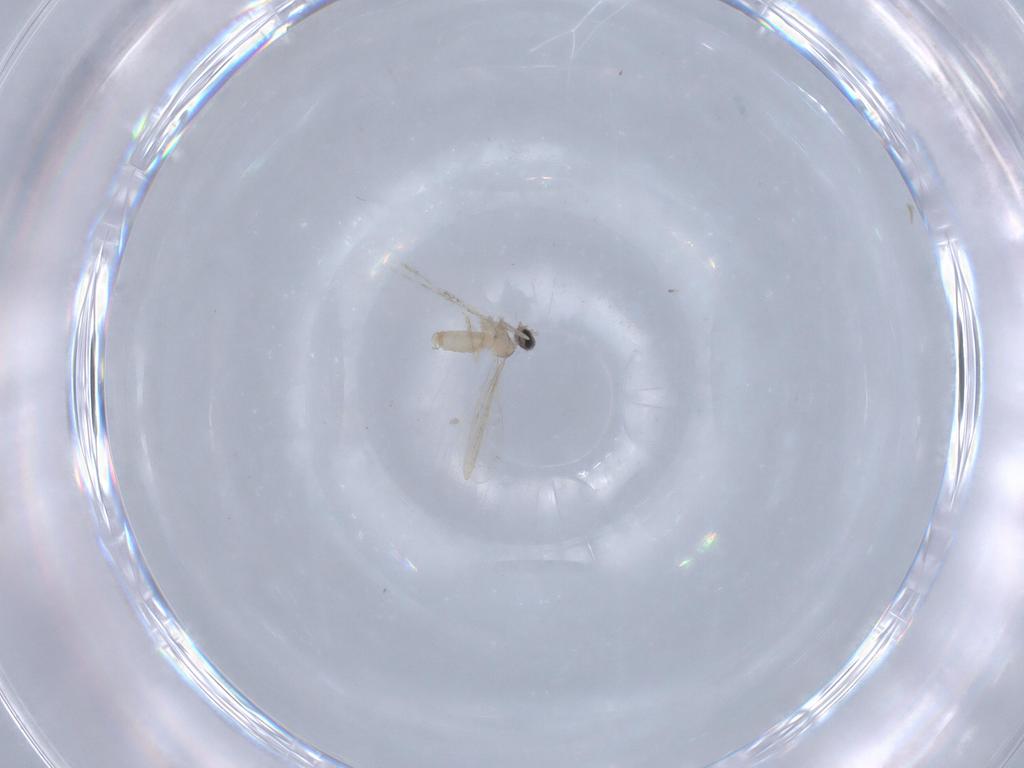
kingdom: Animalia
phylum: Arthropoda
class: Insecta
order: Diptera
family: Cecidomyiidae
